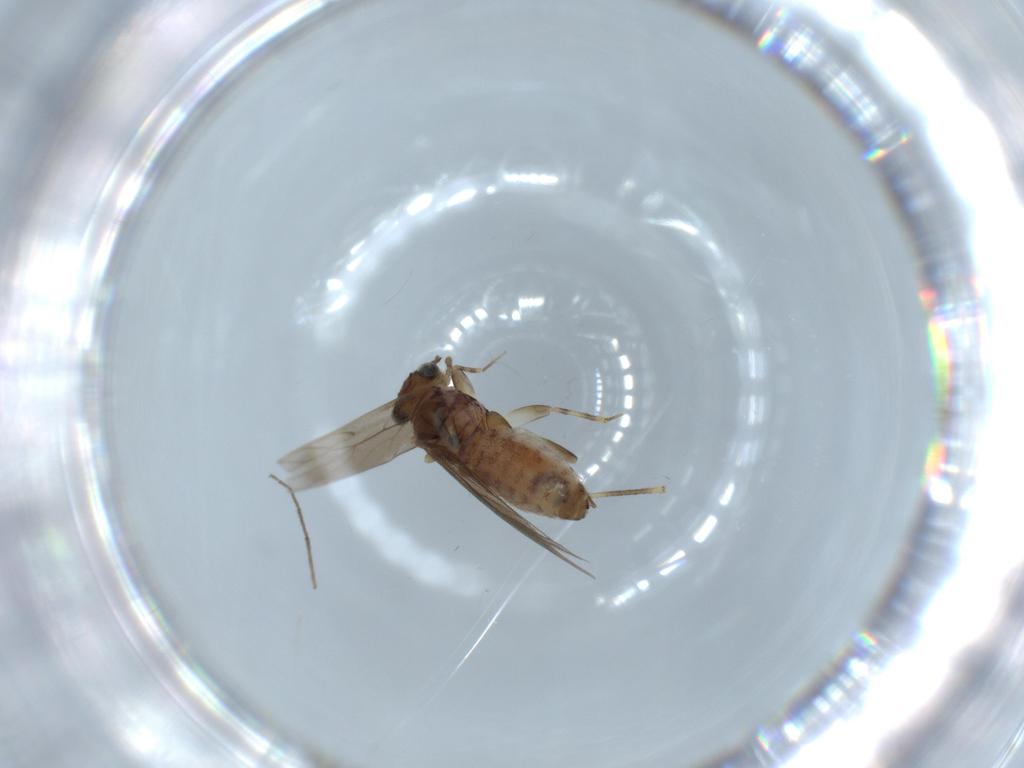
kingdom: Animalia
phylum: Arthropoda
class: Insecta
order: Psocodea
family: Lepidopsocidae
